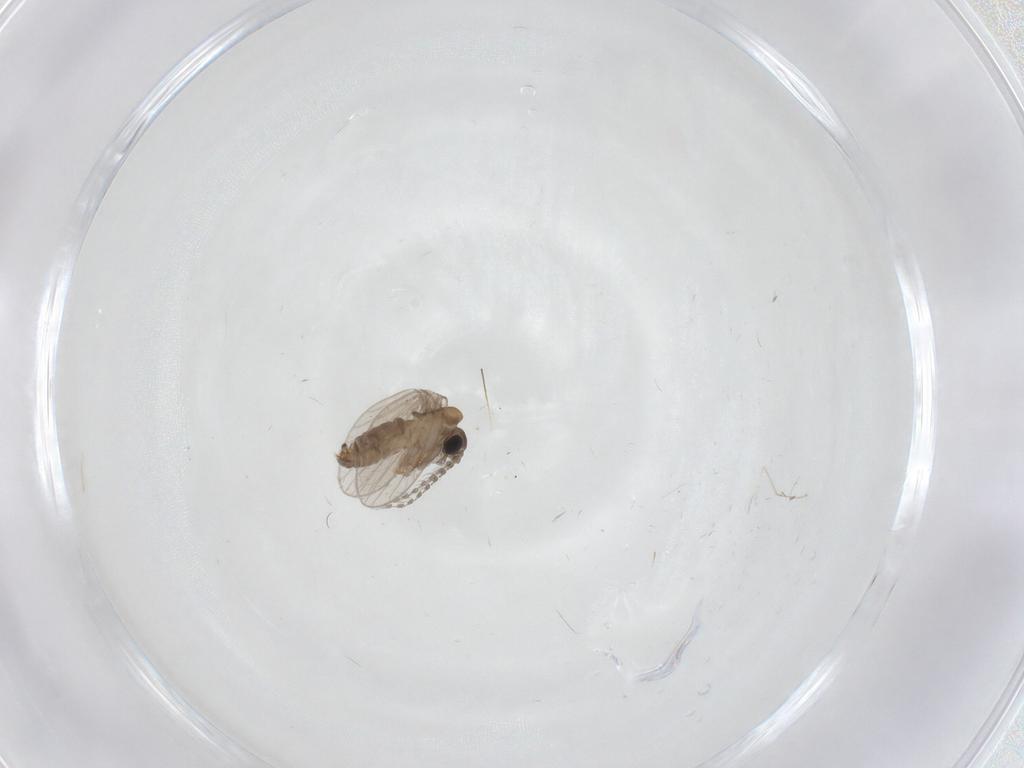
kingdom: Animalia
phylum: Arthropoda
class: Insecta
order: Diptera
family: Psychodidae
